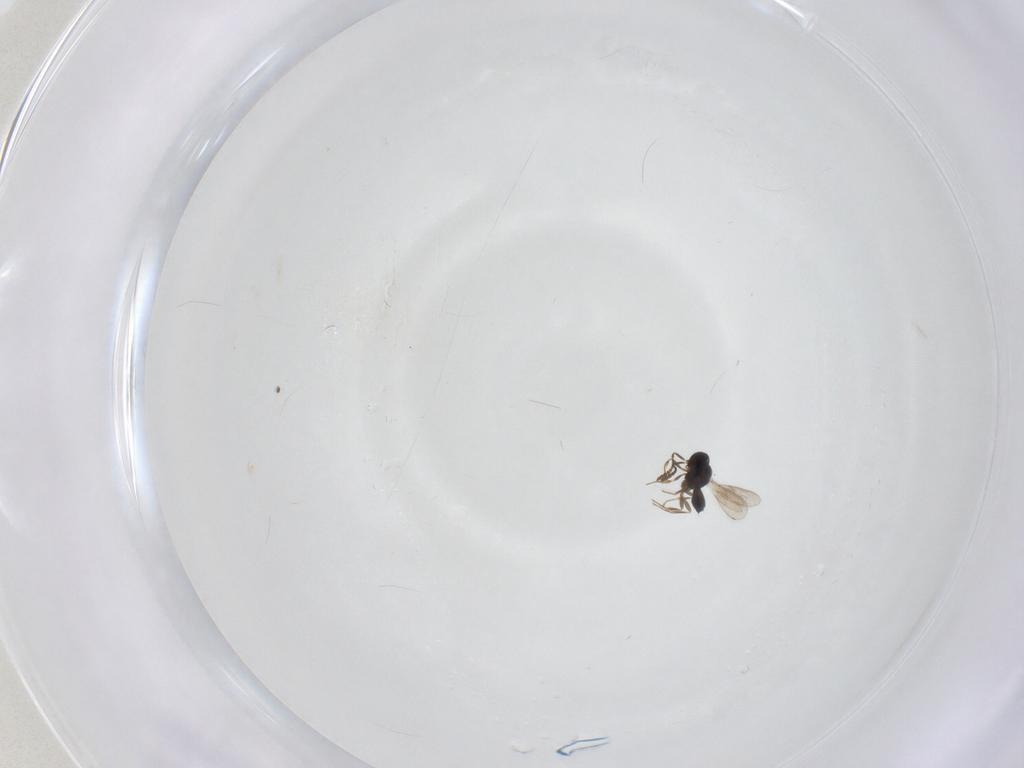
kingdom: Animalia
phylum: Arthropoda
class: Insecta
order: Hymenoptera
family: Scelionidae
